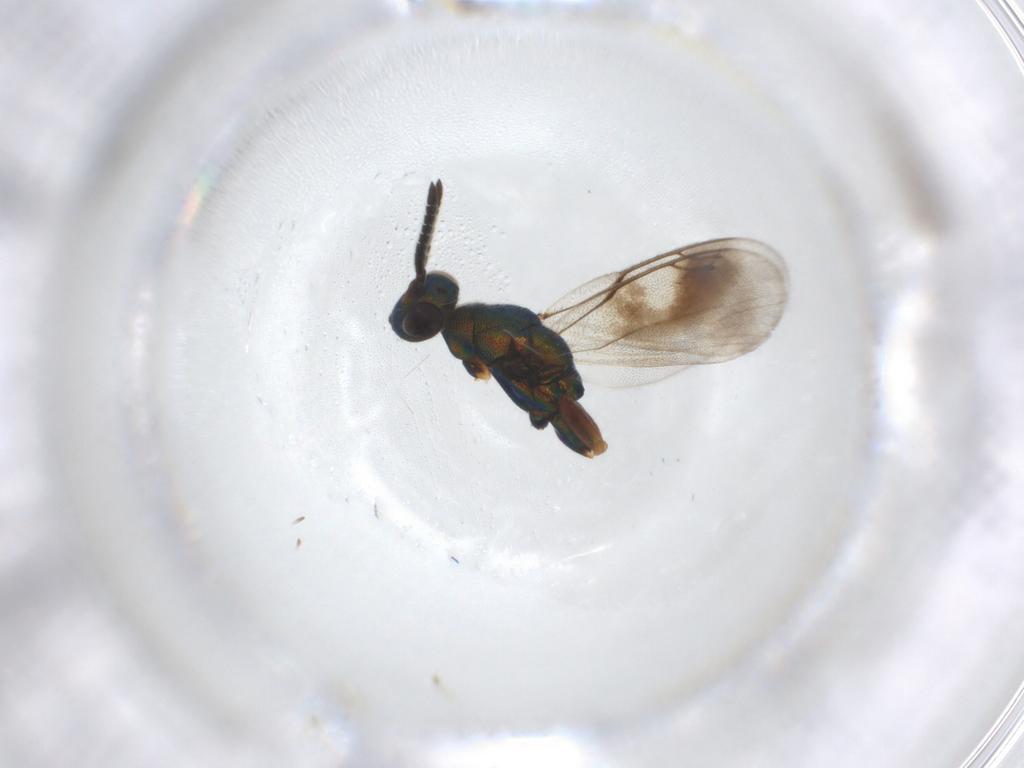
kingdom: Animalia
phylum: Arthropoda
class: Insecta
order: Hymenoptera
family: Cleonyminae
